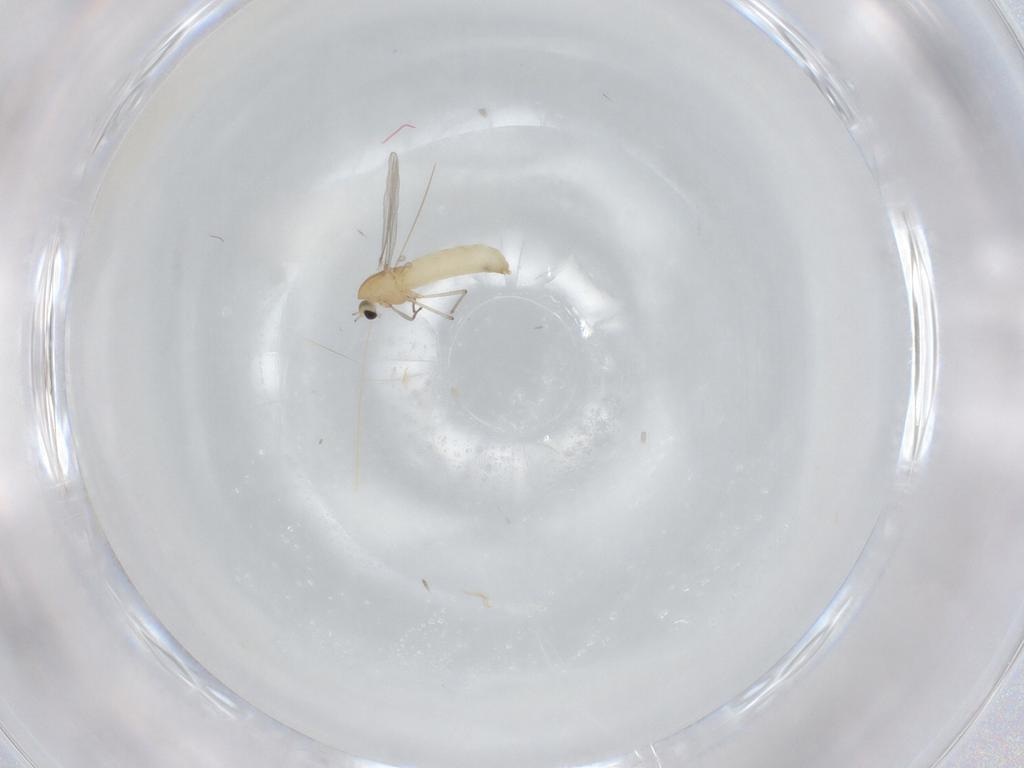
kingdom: Animalia
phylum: Arthropoda
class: Insecta
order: Diptera
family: Chironomidae
